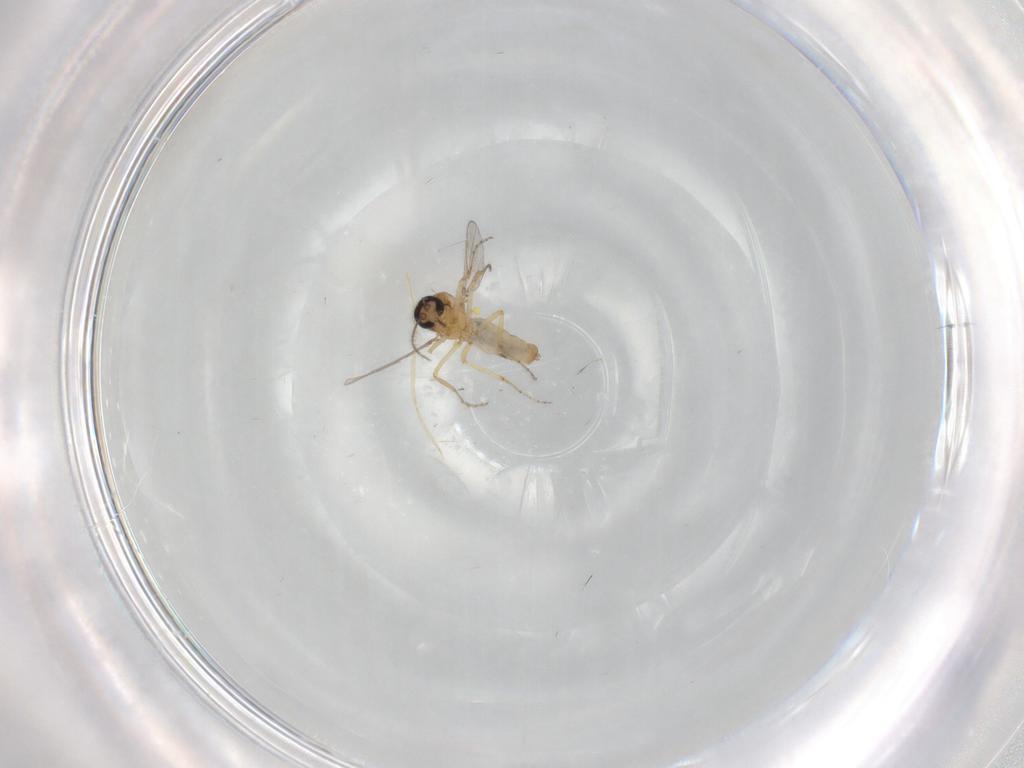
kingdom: Animalia
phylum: Arthropoda
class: Insecta
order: Diptera
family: Ceratopogonidae
